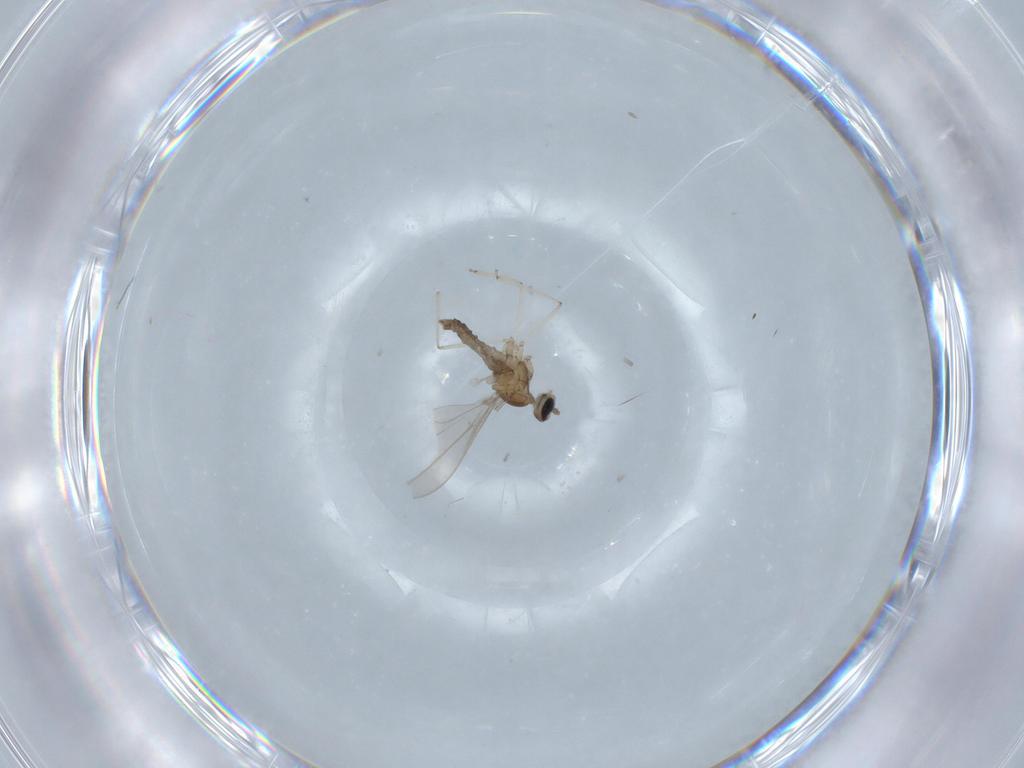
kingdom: Animalia
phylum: Arthropoda
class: Insecta
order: Diptera
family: Cecidomyiidae
